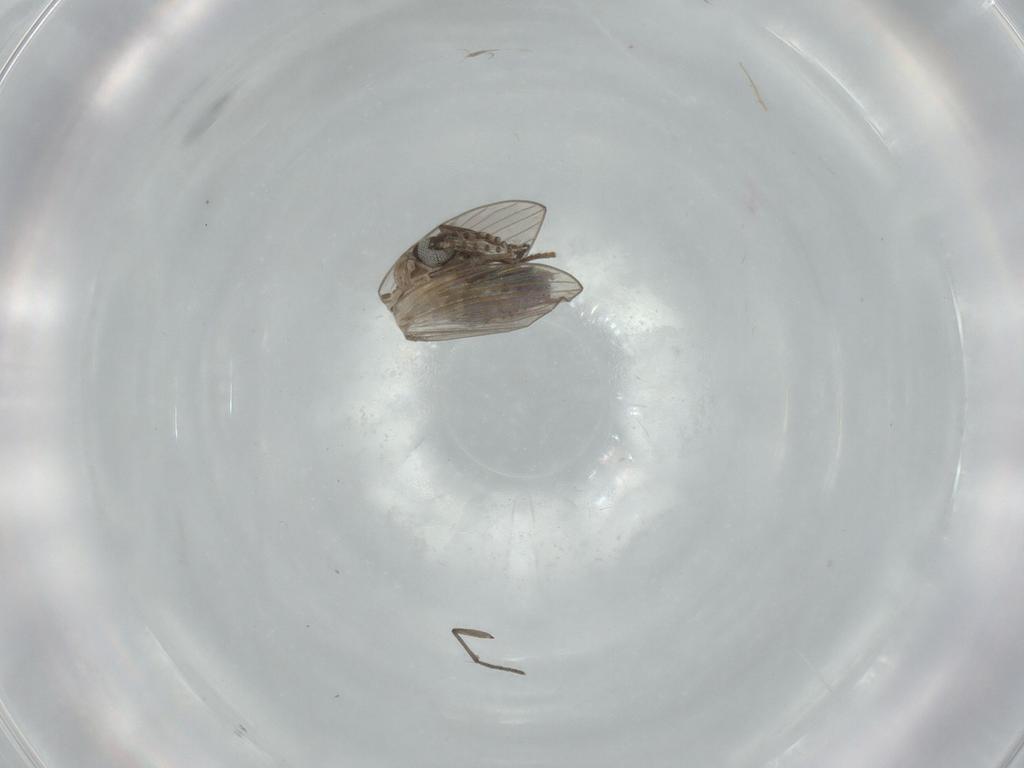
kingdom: Animalia
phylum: Arthropoda
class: Insecta
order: Diptera
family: Psychodidae
